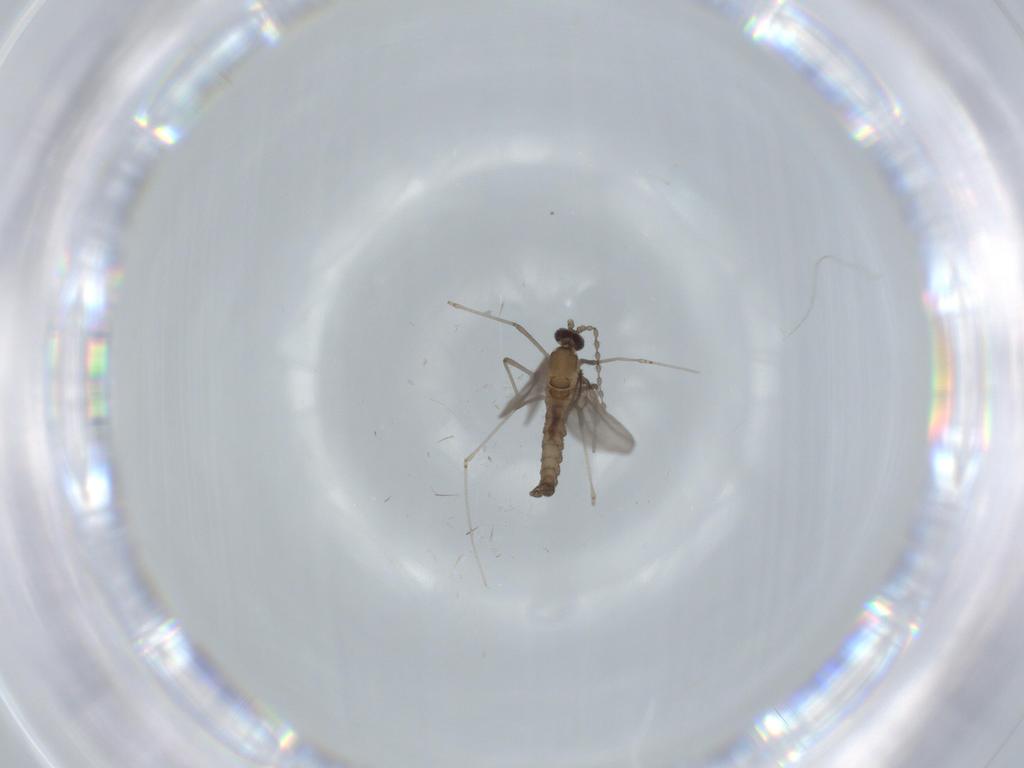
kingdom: Animalia
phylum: Arthropoda
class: Insecta
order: Diptera
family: Cecidomyiidae
